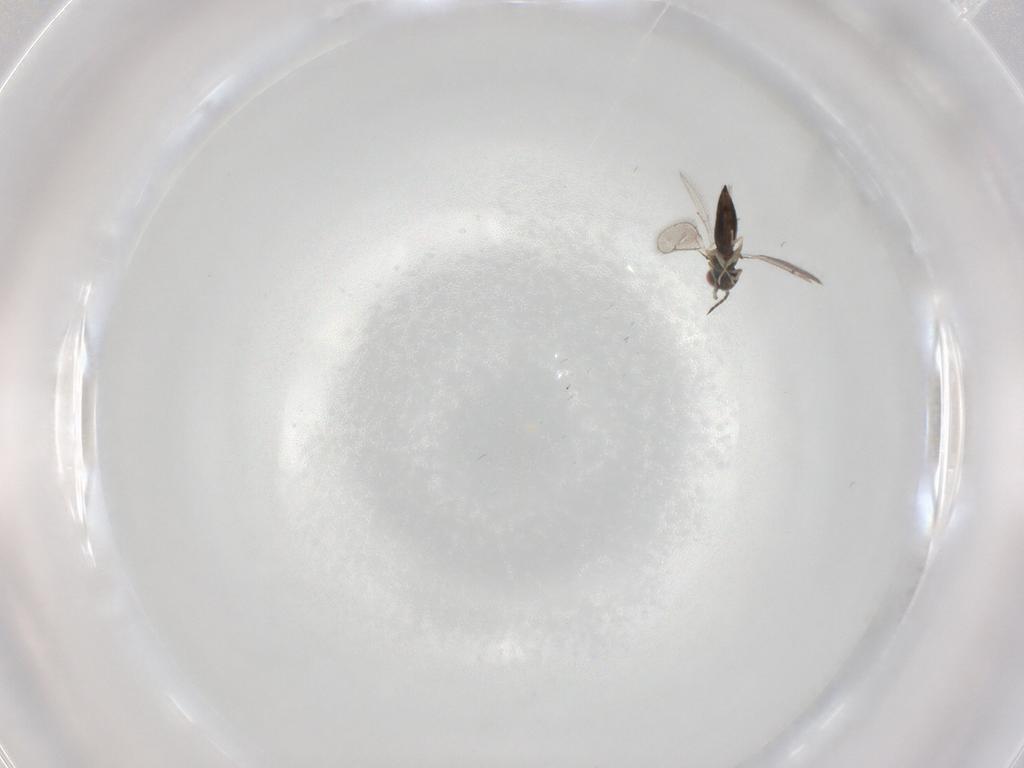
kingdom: Animalia
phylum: Arthropoda
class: Insecta
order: Hymenoptera
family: Eulophidae
